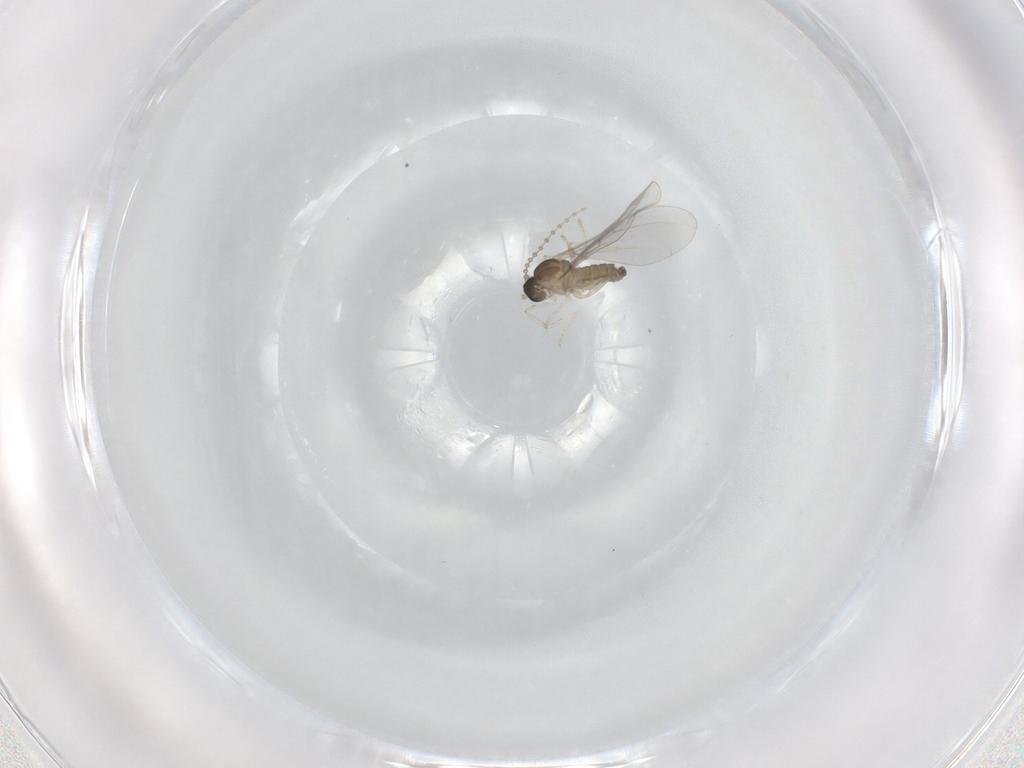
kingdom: Animalia
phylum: Arthropoda
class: Insecta
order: Diptera
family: Cecidomyiidae
